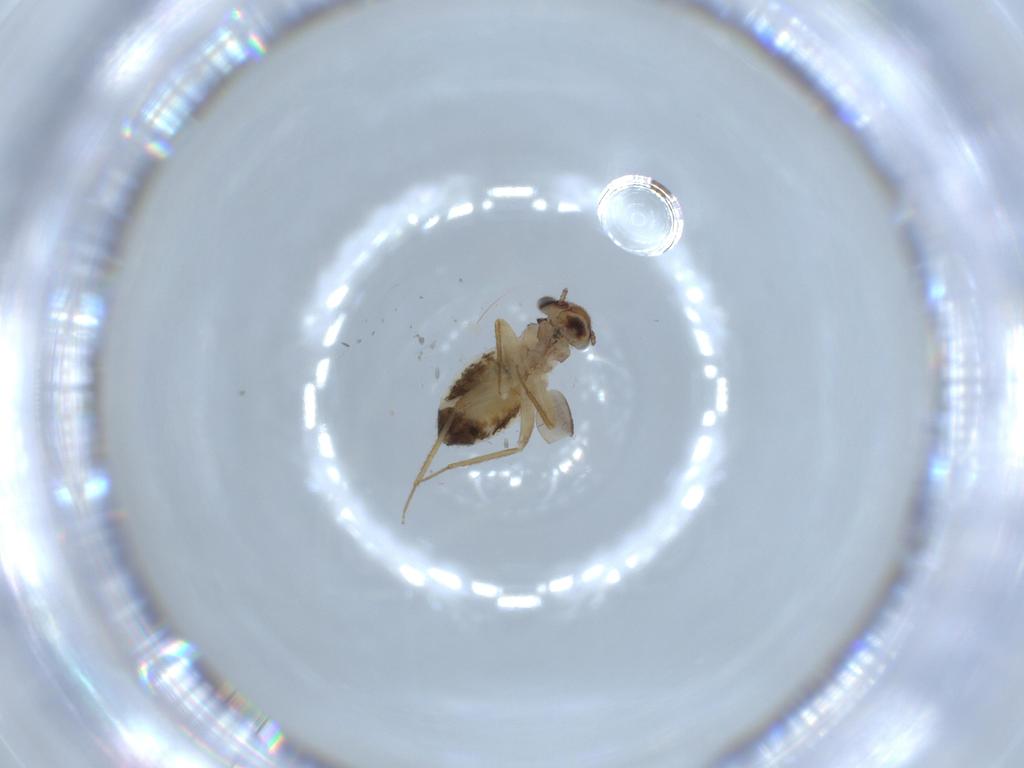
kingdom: Animalia
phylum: Arthropoda
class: Insecta
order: Psocodea
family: Lepidopsocidae
